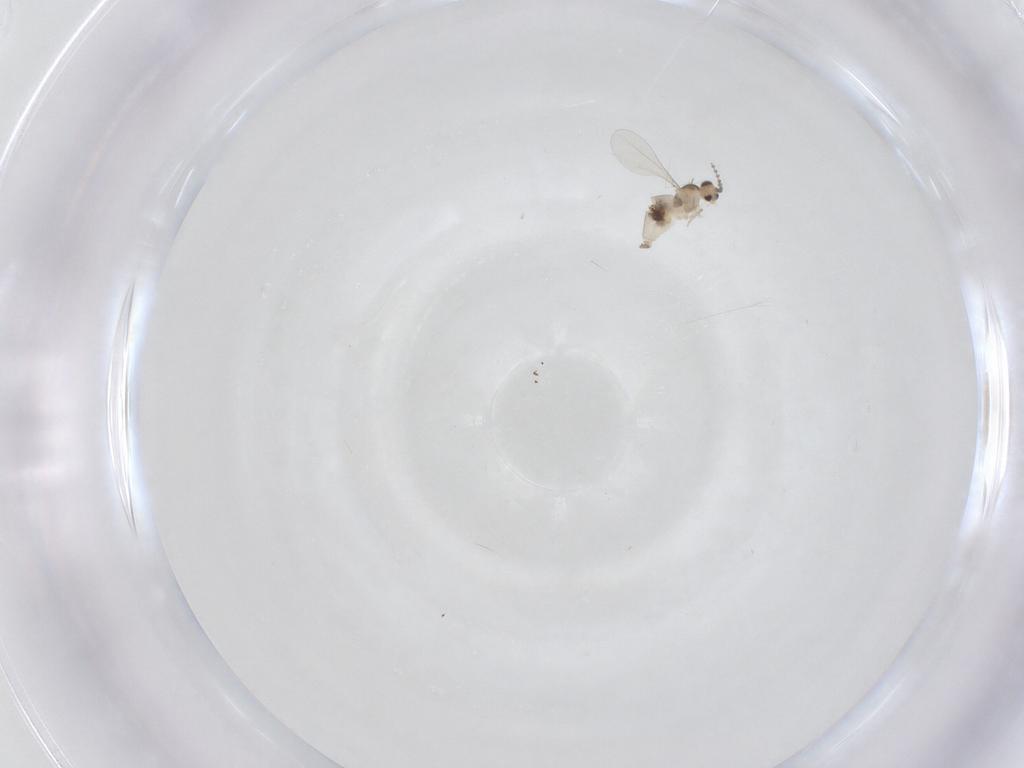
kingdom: Animalia
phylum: Arthropoda
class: Insecta
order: Diptera
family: Cecidomyiidae
